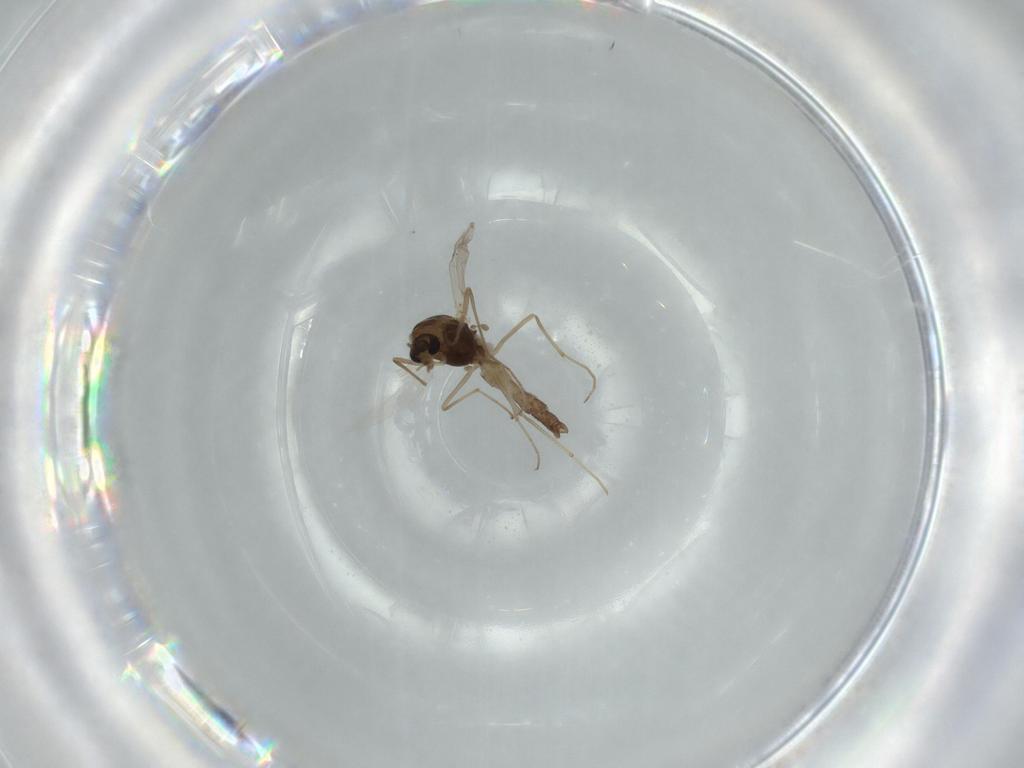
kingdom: Animalia
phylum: Arthropoda
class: Insecta
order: Diptera
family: Chironomidae
